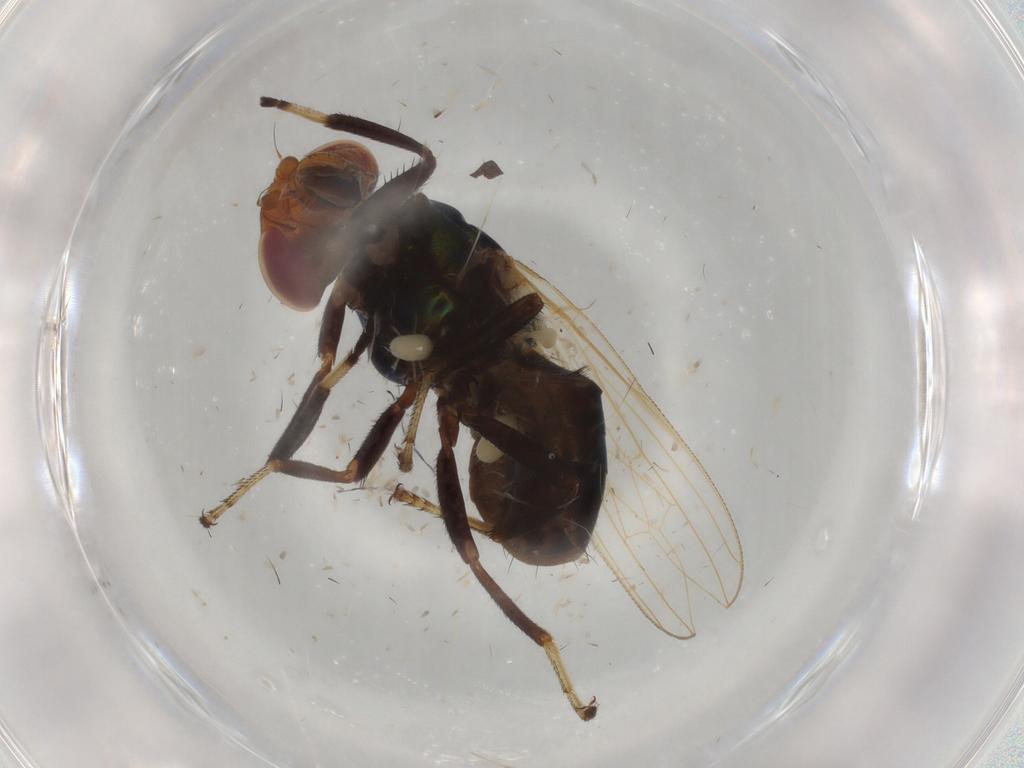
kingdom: Animalia
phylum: Arthropoda
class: Insecta
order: Diptera
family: Ulidiidae
